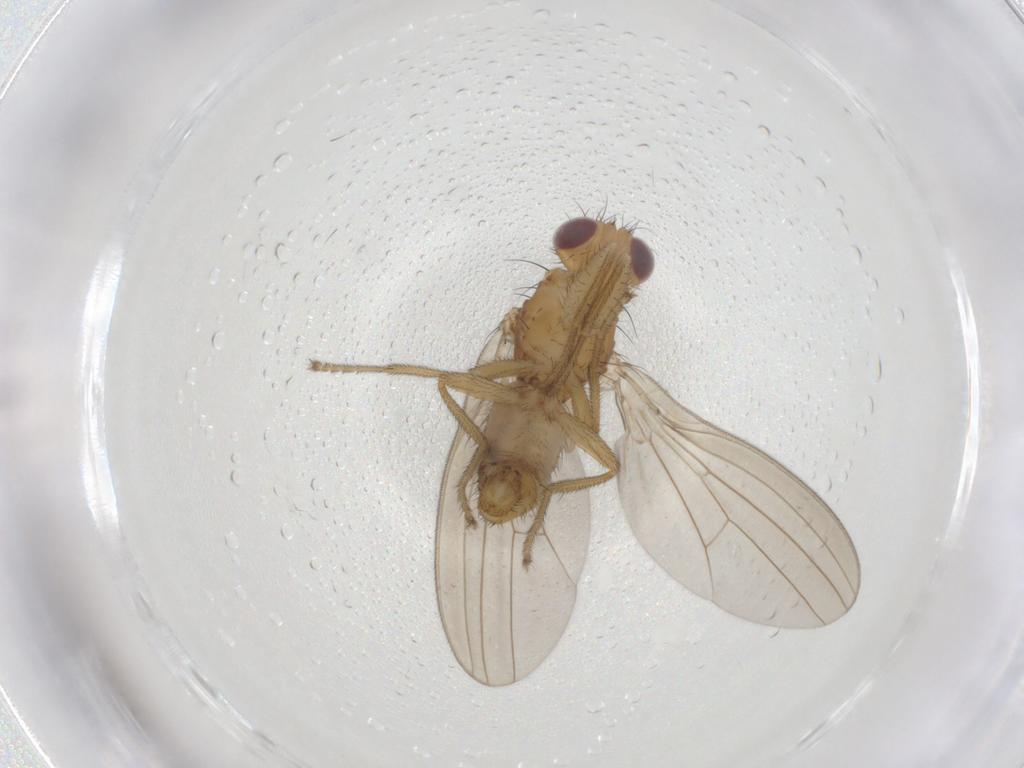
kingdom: Animalia
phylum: Arthropoda
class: Insecta
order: Diptera
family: Natalimyzidae
